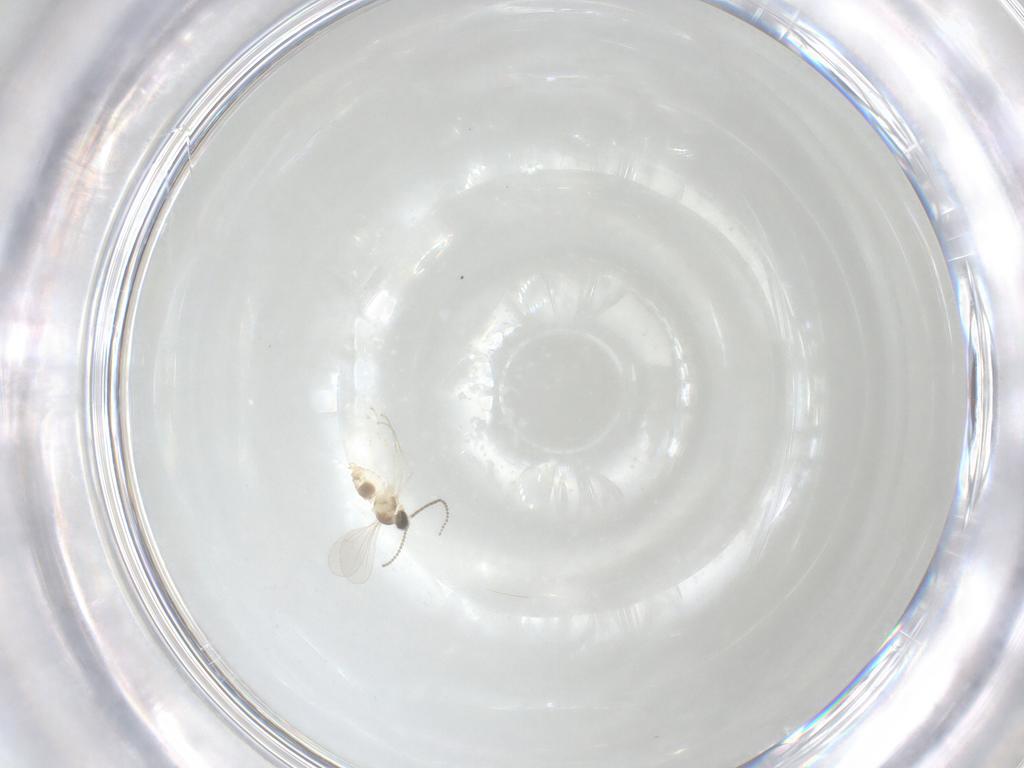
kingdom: Animalia
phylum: Arthropoda
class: Insecta
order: Diptera
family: Cecidomyiidae
